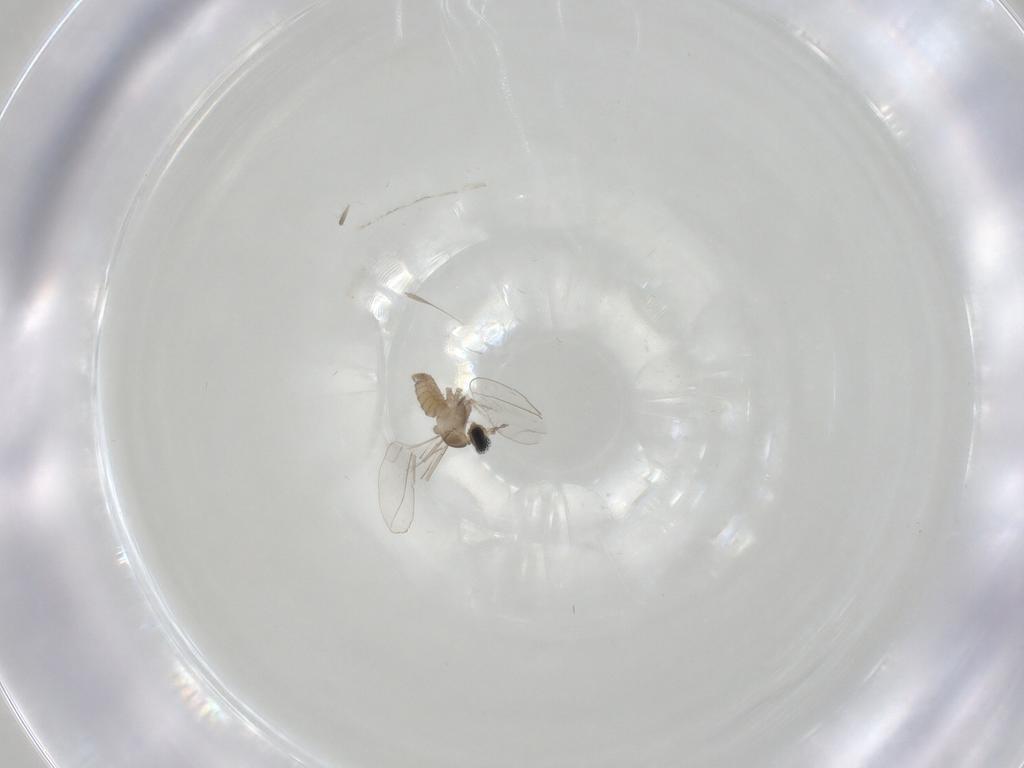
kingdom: Animalia
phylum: Arthropoda
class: Insecta
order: Diptera
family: Cecidomyiidae
